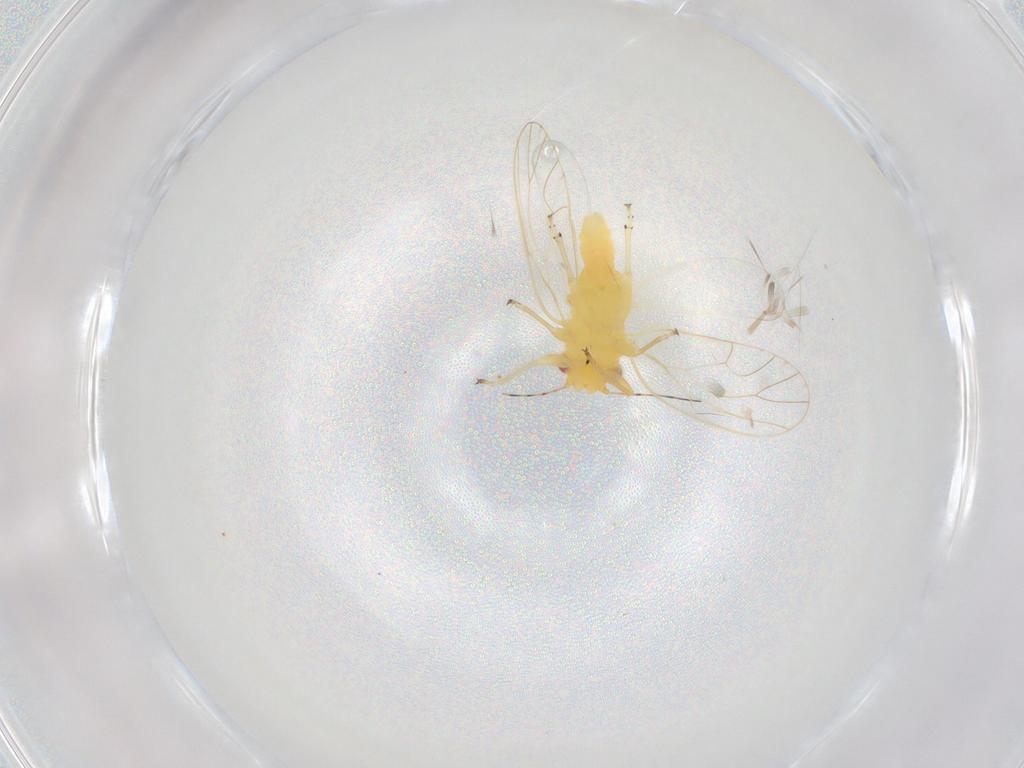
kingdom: Animalia
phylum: Arthropoda
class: Insecta
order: Hemiptera
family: Psyllidae
